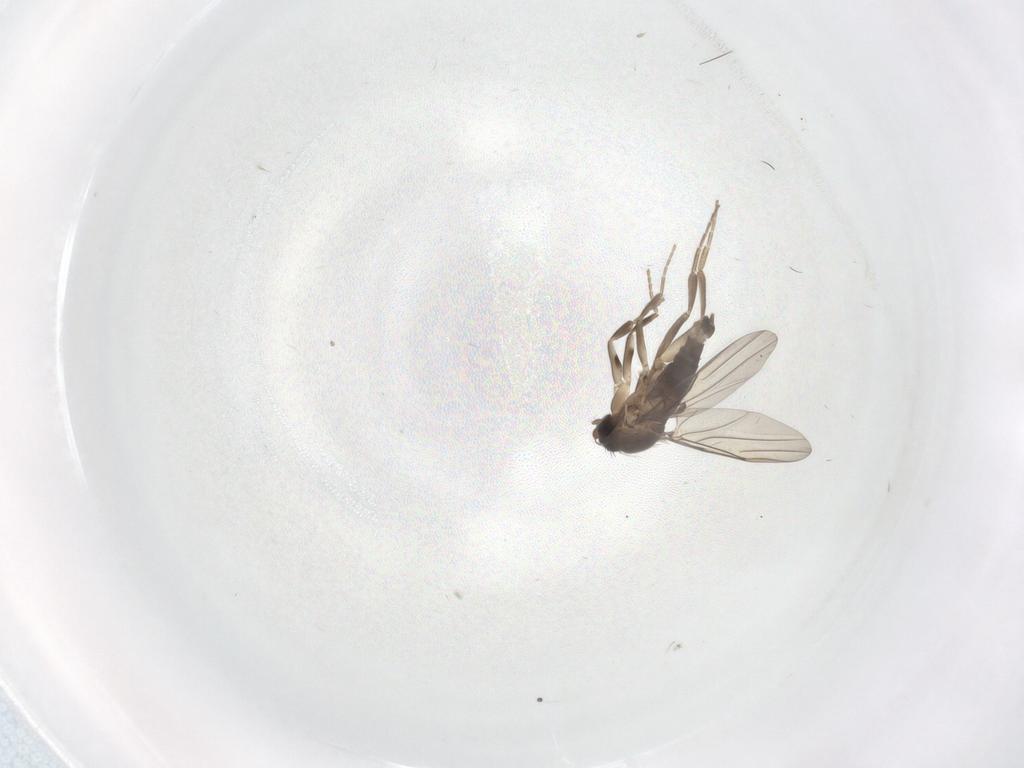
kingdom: Animalia
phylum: Arthropoda
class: Insecta
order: Diptera
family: Phoridae
